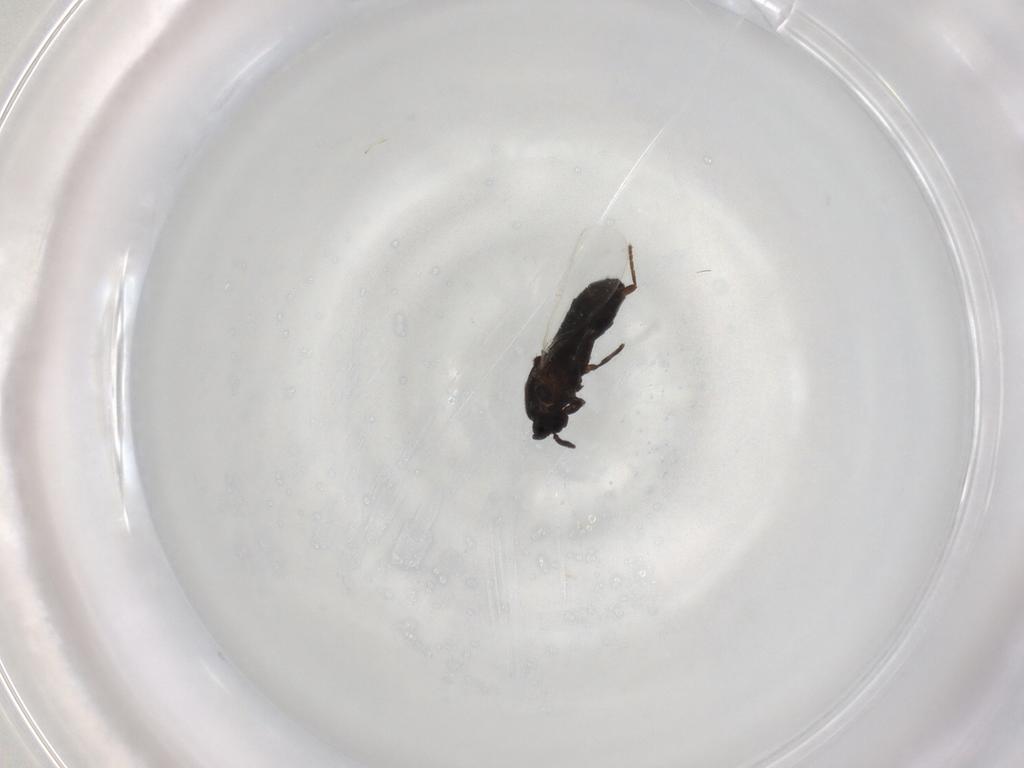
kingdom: Animalia
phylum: Arthropoda
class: Insecta
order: Diptera
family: Scatopsidae
